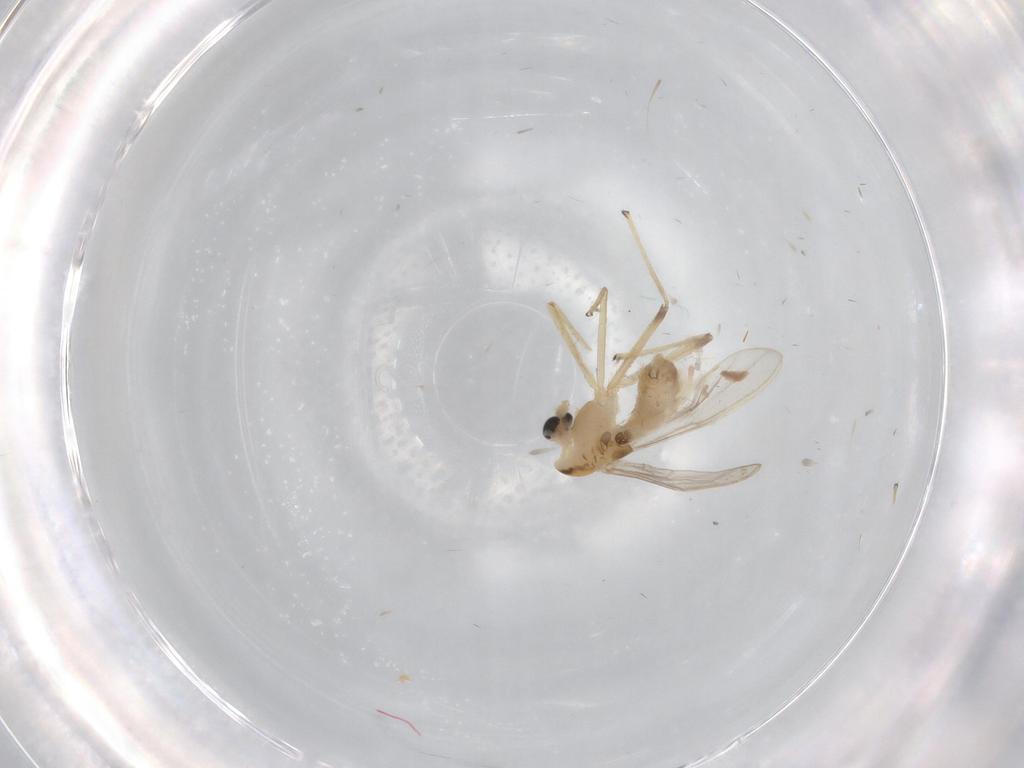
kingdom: Animalia
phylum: Arthropoda
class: Insecta
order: Diptera
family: Chironomidae
